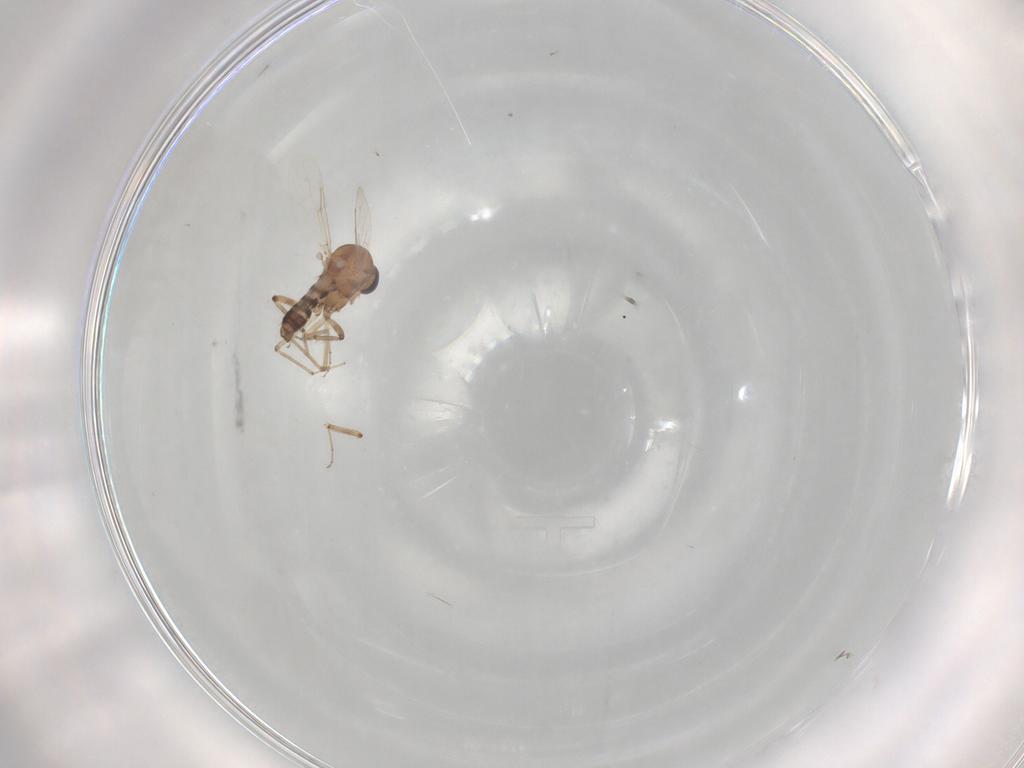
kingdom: Animalia
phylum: Arthropoda
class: Insecta
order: Diptera
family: Ceratopogonidae
